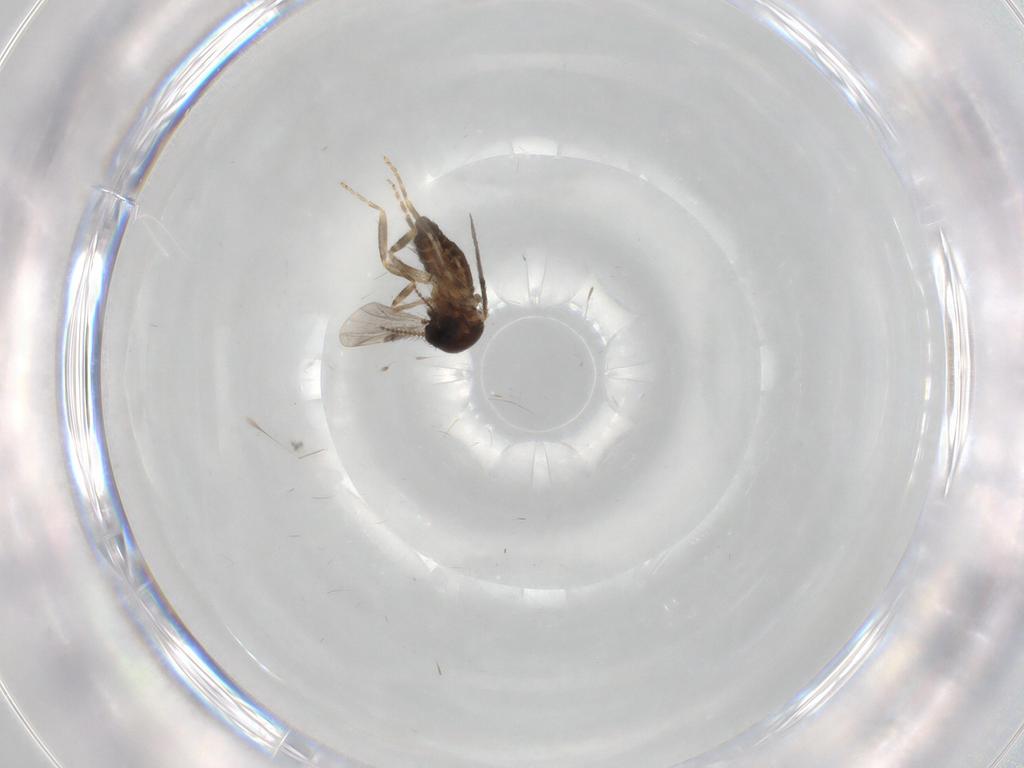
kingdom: Animalia
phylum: Arthropoda
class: Insecta
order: Diptera
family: Ceratopogonidae
